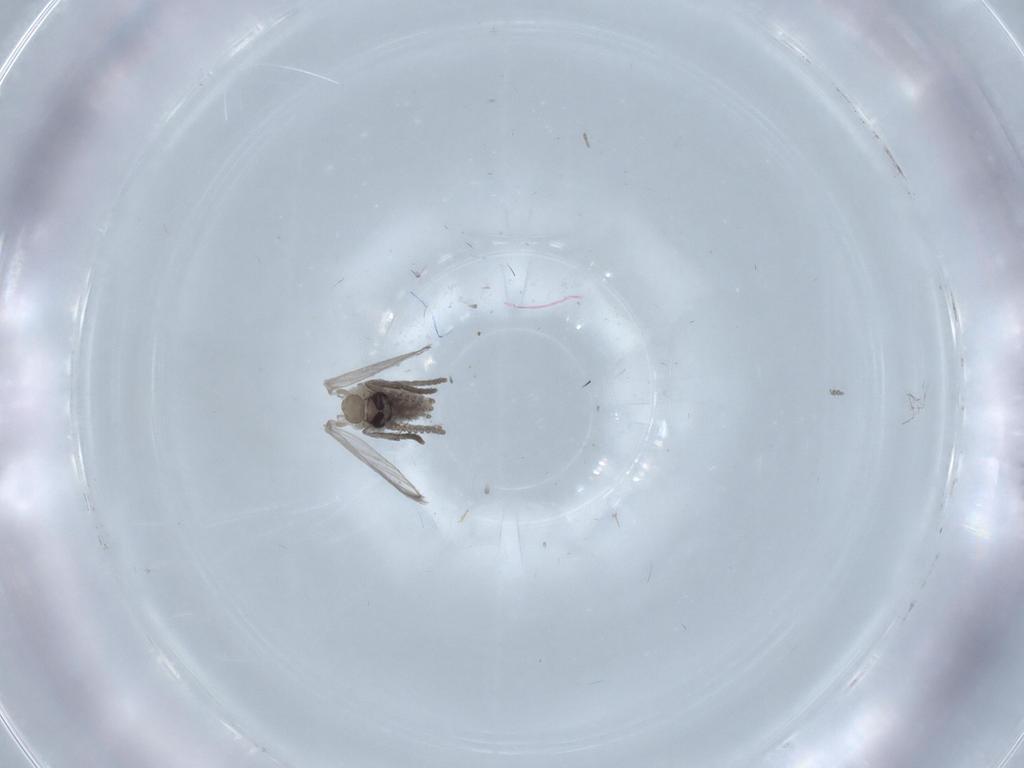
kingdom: Animalia
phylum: Arthropoda
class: Insecta
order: Diptera
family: Psychodidae
